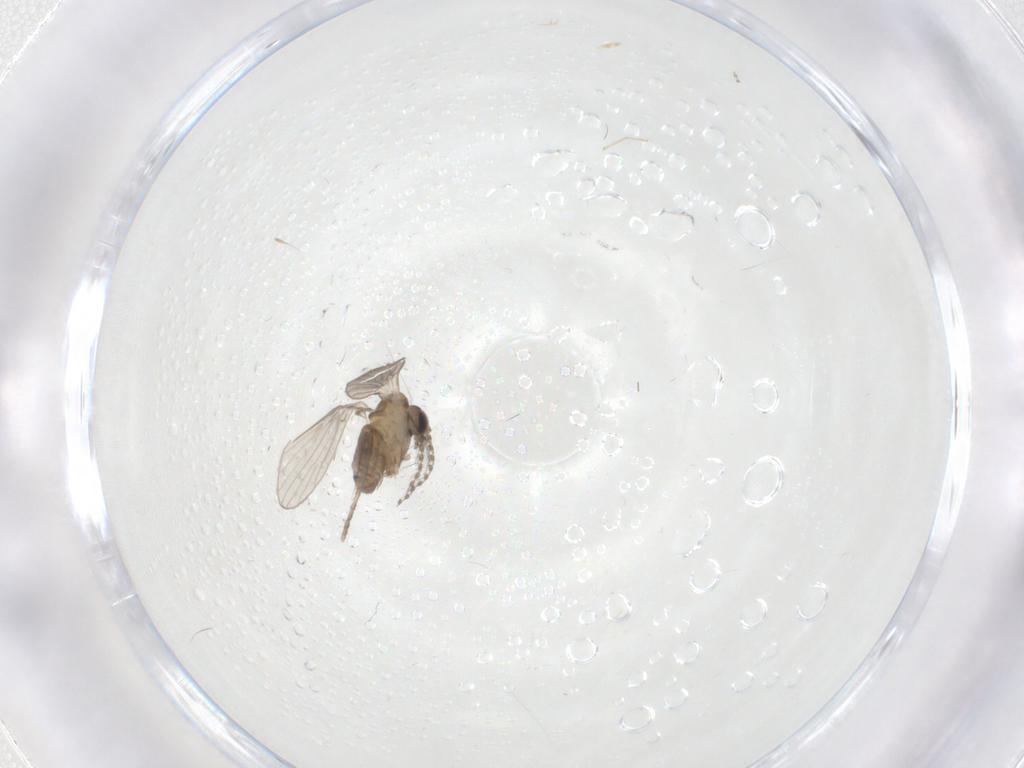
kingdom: Animalia
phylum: Arthropoda
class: Insecta
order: Diptera
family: Psychodidae
